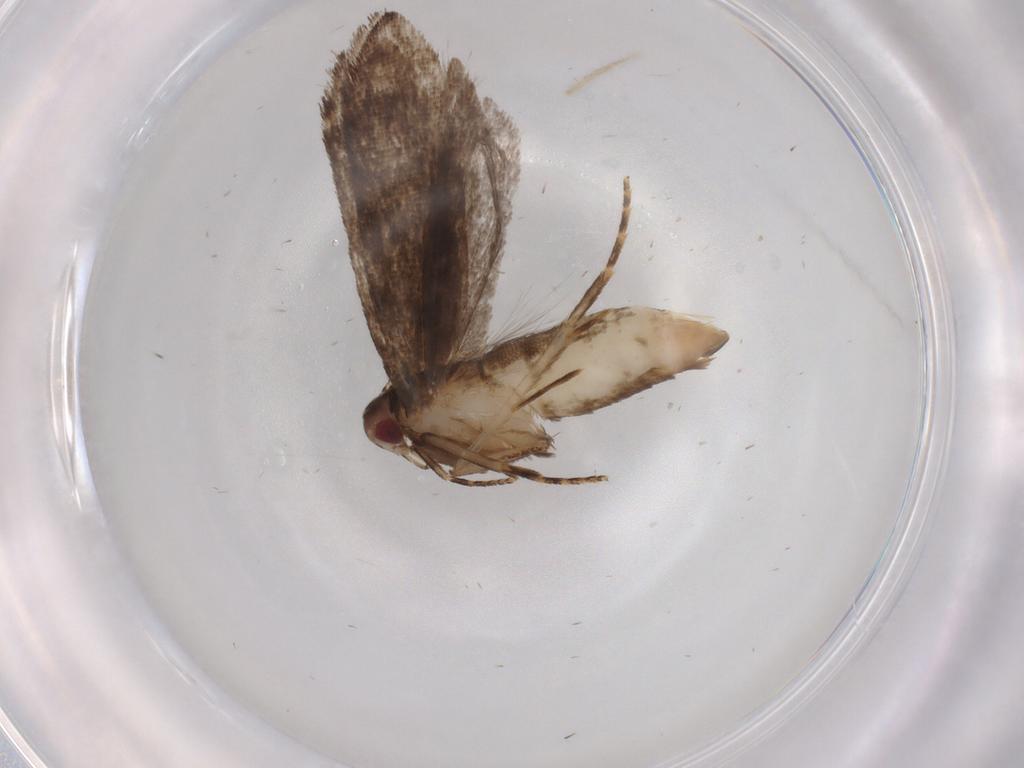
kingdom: Animalia
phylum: Arthropoda
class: Insecta
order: Lepidoptera
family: Gelechiidae
